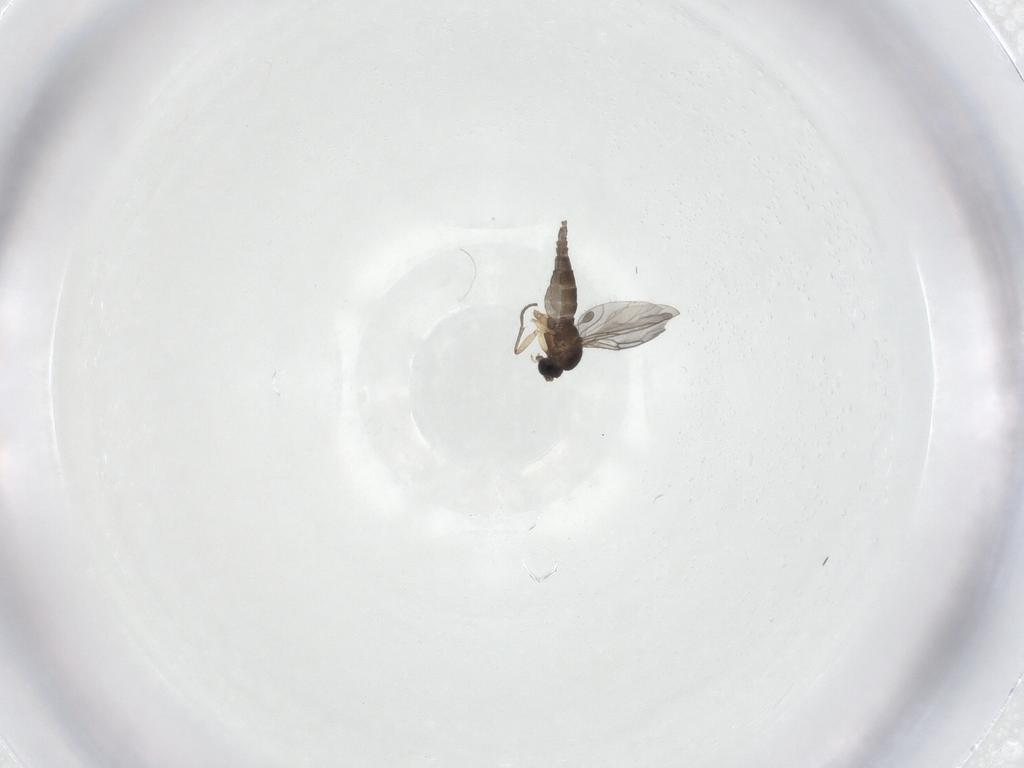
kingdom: Animalia
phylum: Arthropoda
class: Insecta
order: Diptera
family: Sciaridae
